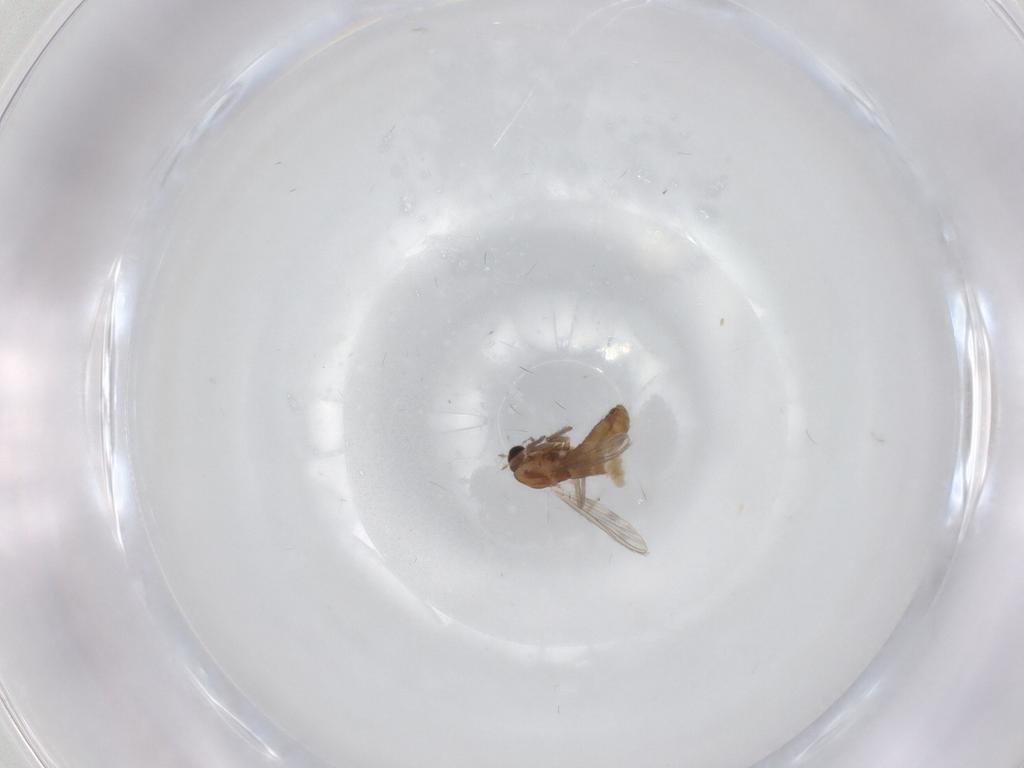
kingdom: Animalia
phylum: Arthropoda
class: Insecta
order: Diptera
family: Chironomidae
